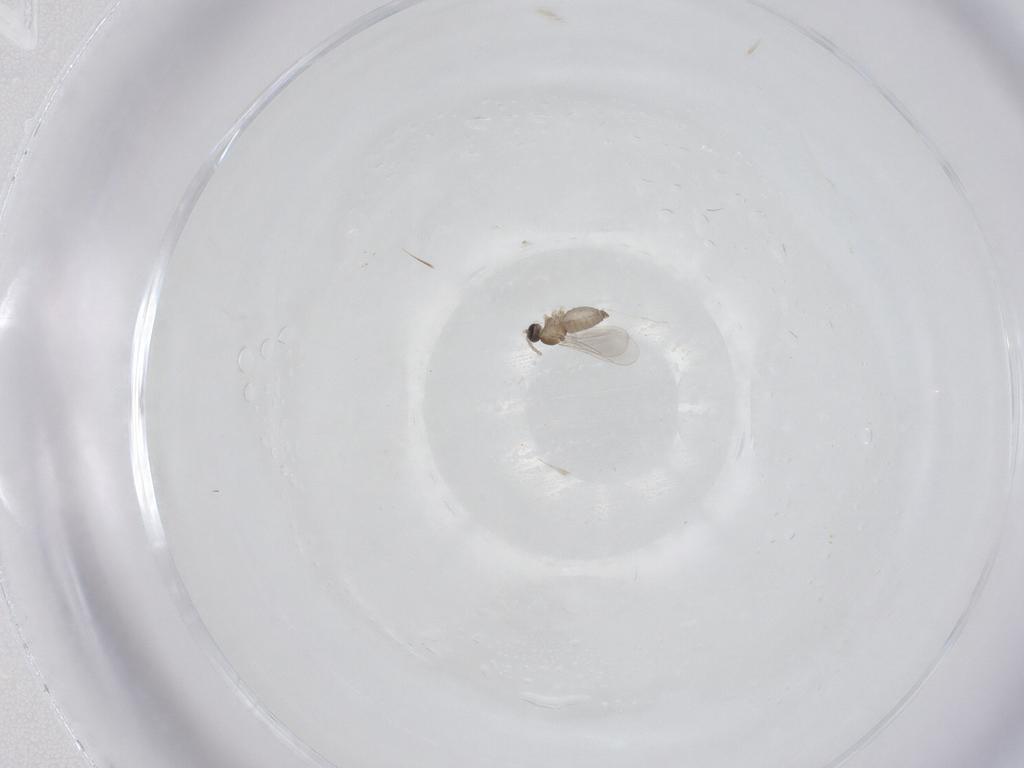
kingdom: Animalia
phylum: Arthropoda
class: Insecta
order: Diptera
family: Cecidomyiidae
